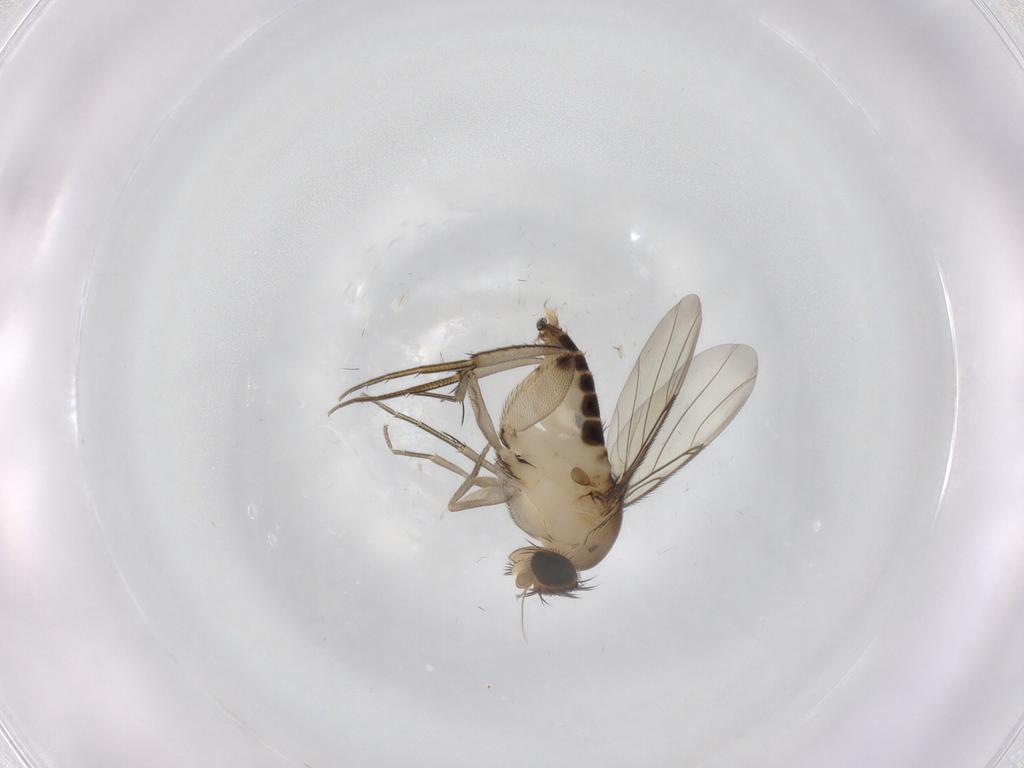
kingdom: Animalia
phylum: Arthropoda
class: Insecta
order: Diptera
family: Phoridae
